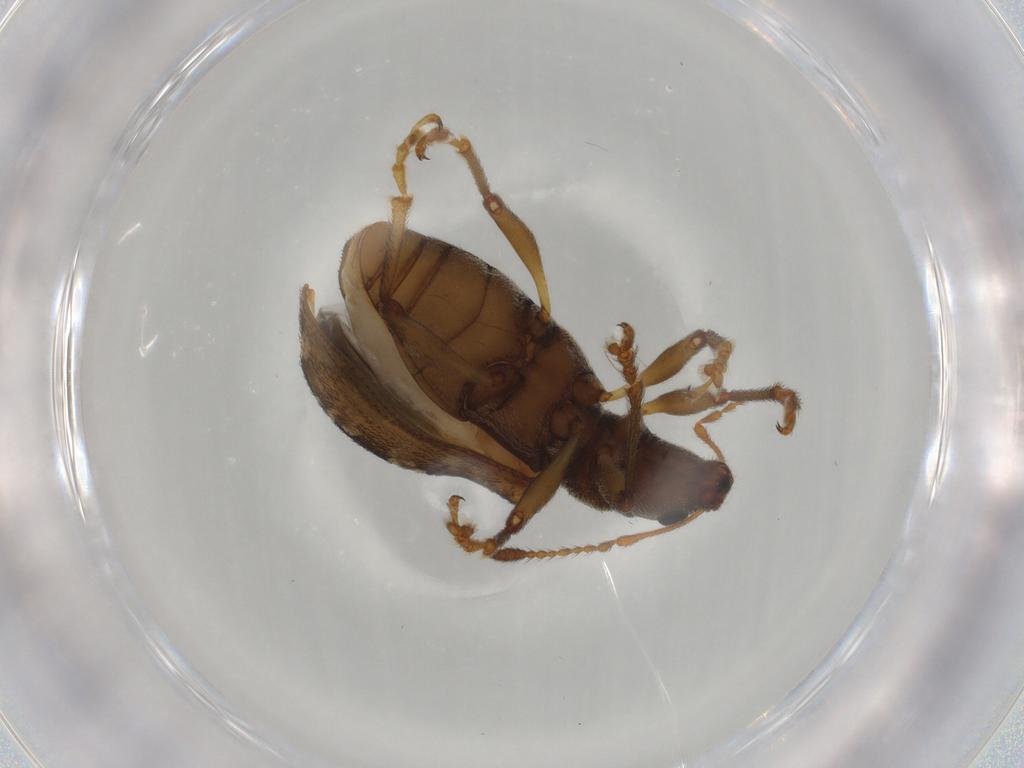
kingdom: Animalia
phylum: Arthropoda
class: Insecta
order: Coleoptera
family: Curculionidae
